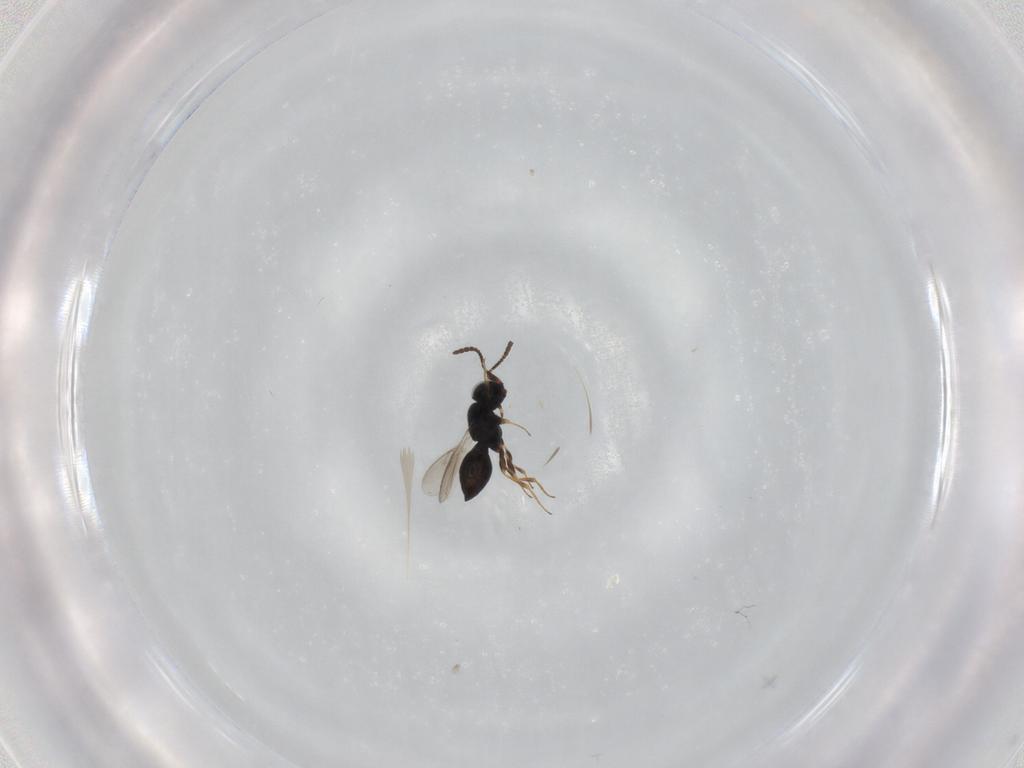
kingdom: Animalia
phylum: Arthropoda
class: Insecta
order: Hymenoptera
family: Scelionidae
